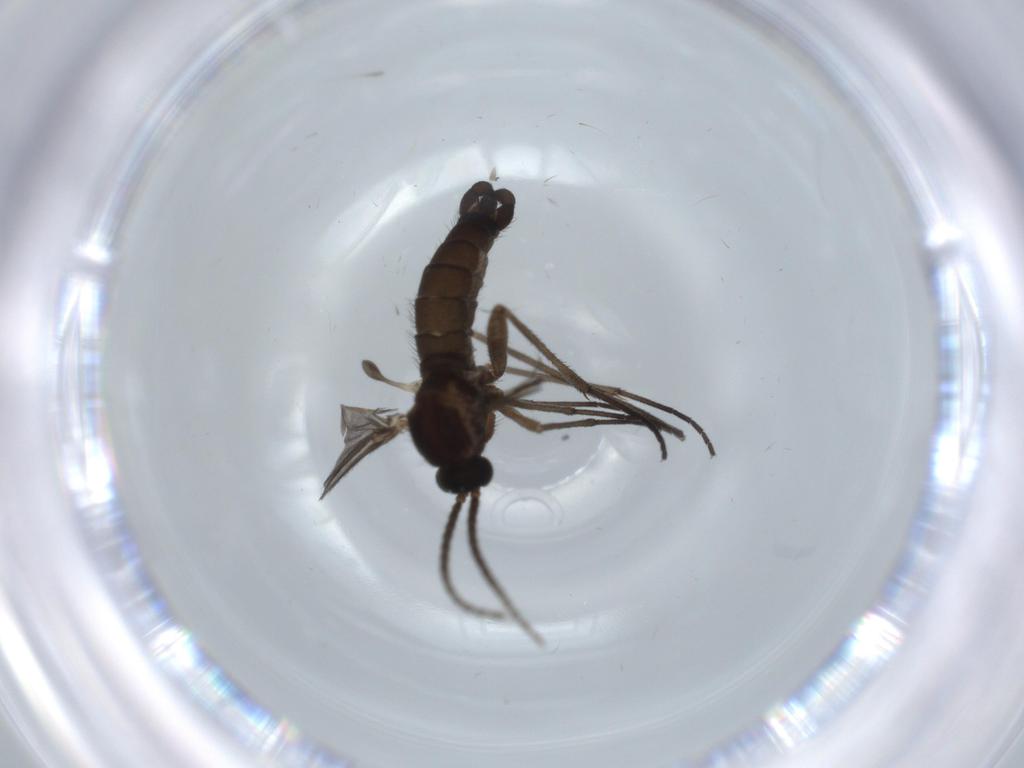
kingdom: Animalia
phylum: Arthropoda
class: Insecta
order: Diptera
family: Sciaridae
